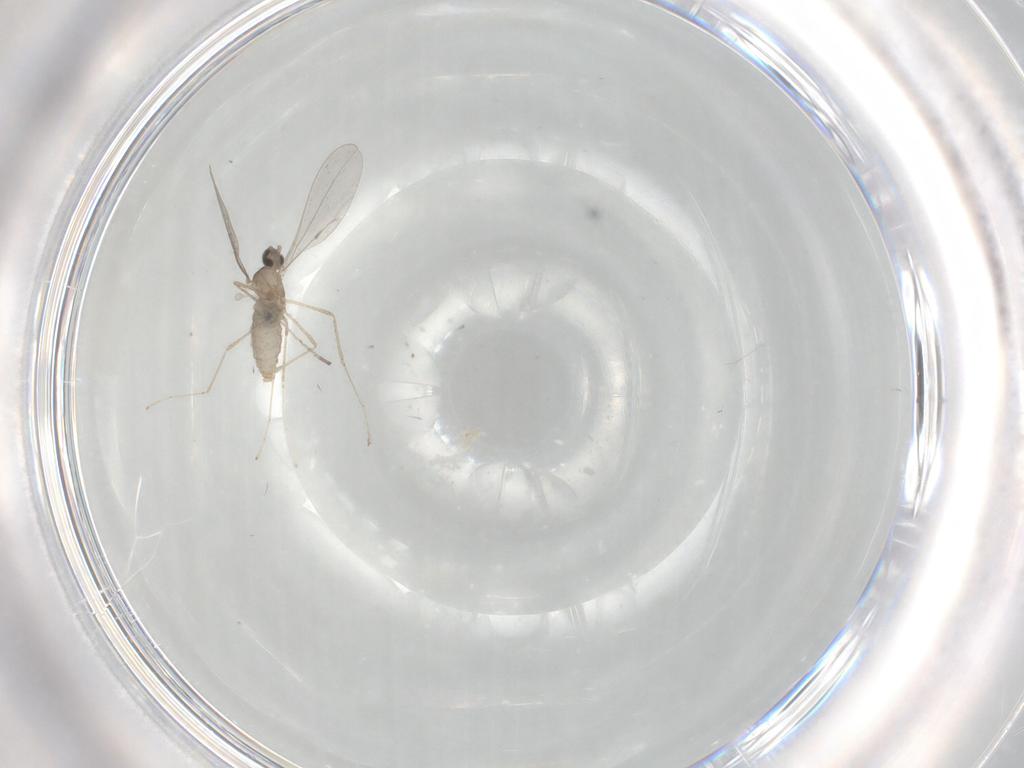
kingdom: Animalia
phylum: Arthropoda
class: Insecta
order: Diptera
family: Cecidomyiidae
